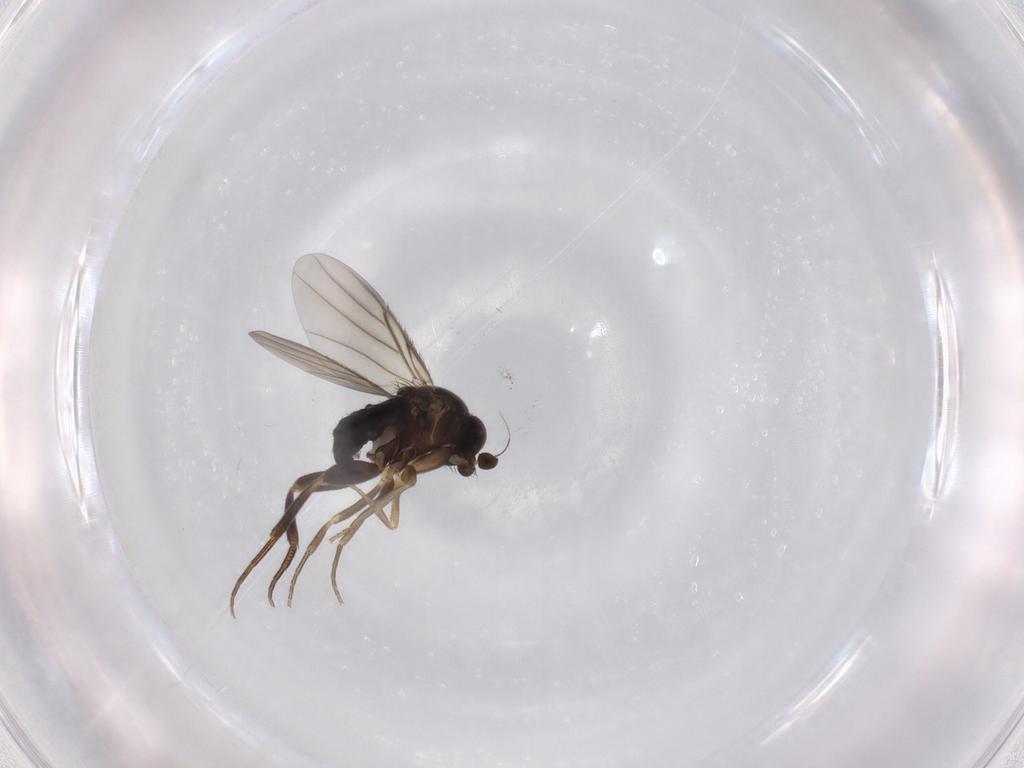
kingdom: Animalia
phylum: Arthropoda
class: Insecta
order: Diptera
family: Phoridae
